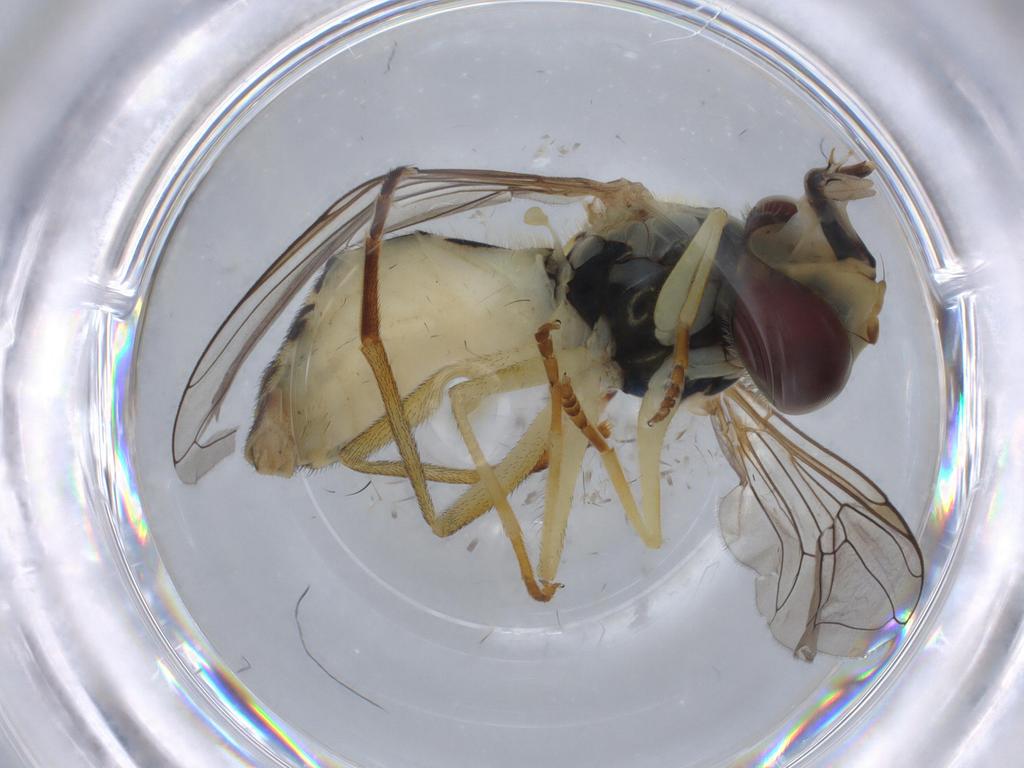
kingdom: Animalia
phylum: Arthropoda
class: Insecta
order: Diptera
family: Syrphidae
